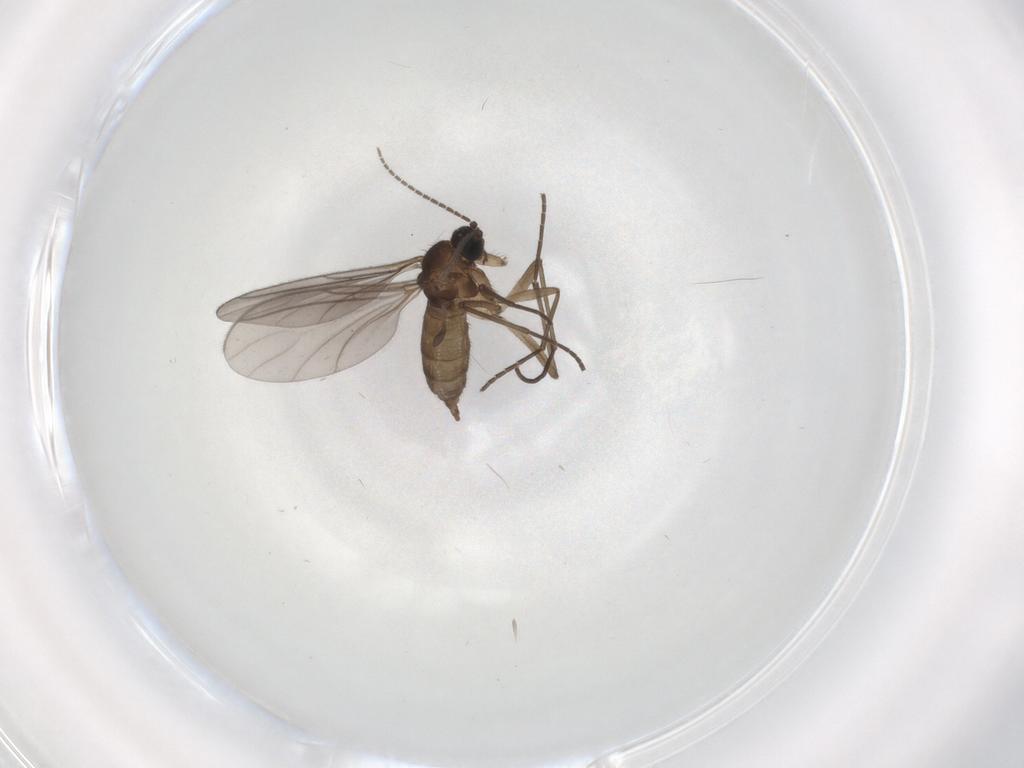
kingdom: Animalia
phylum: Arthropoda
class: Insecta
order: Diptera
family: Sciaridae
